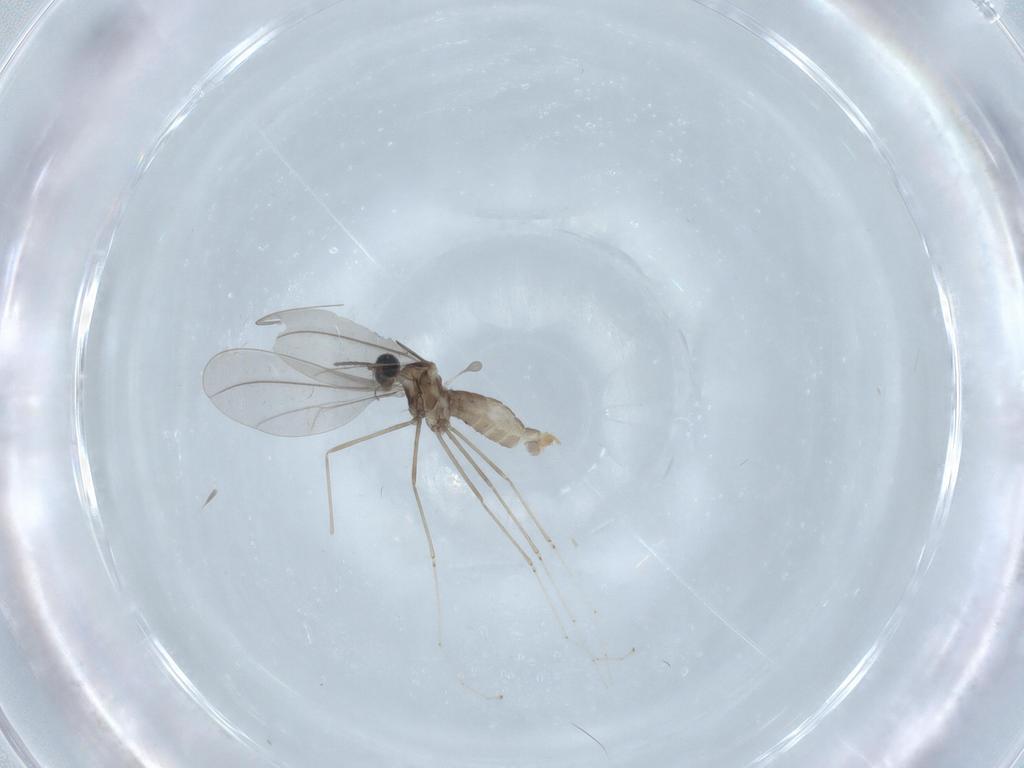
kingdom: Animalia
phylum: Arthropoda
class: Insecta
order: Diptera
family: Cecidomyiidae
